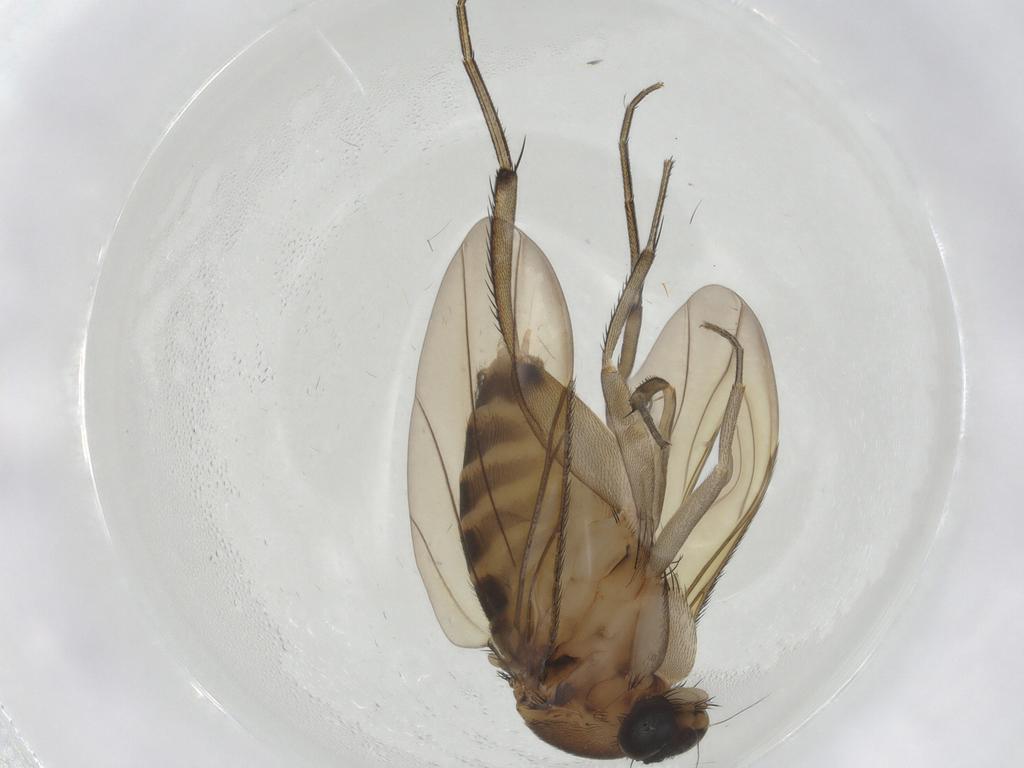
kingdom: Animalia
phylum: Arthropoda
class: Insecta
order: Diptera
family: Phoridae
